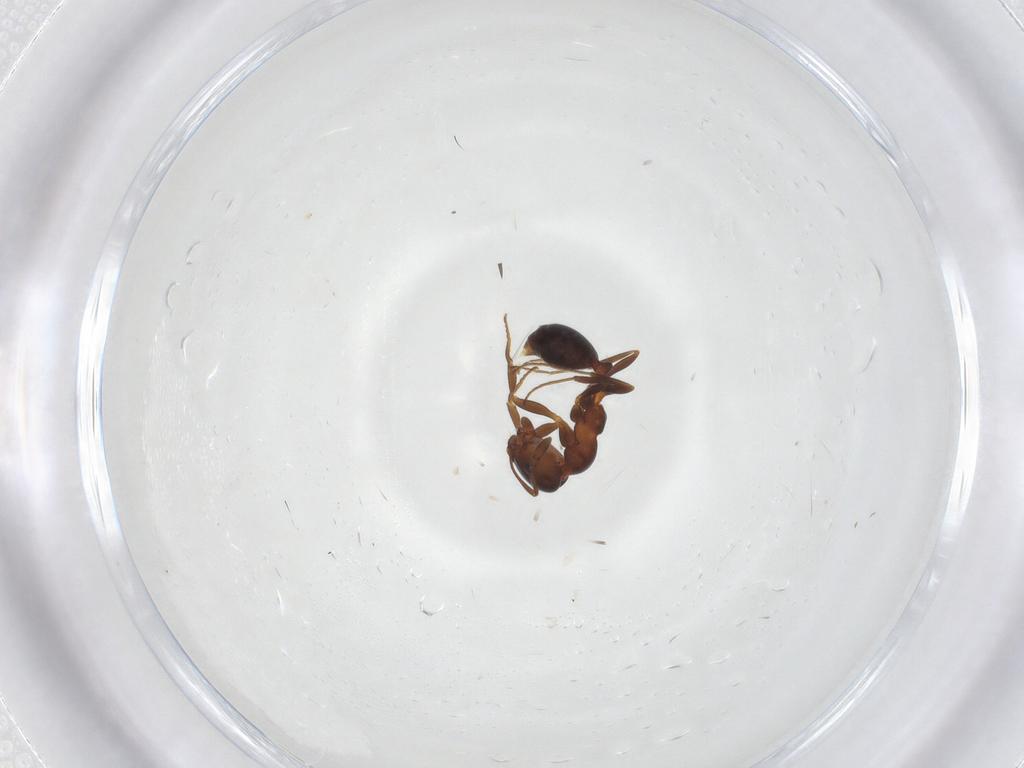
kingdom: Animalia
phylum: Arthropoda
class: Insecta
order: Hymenoptera
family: Formicidae
